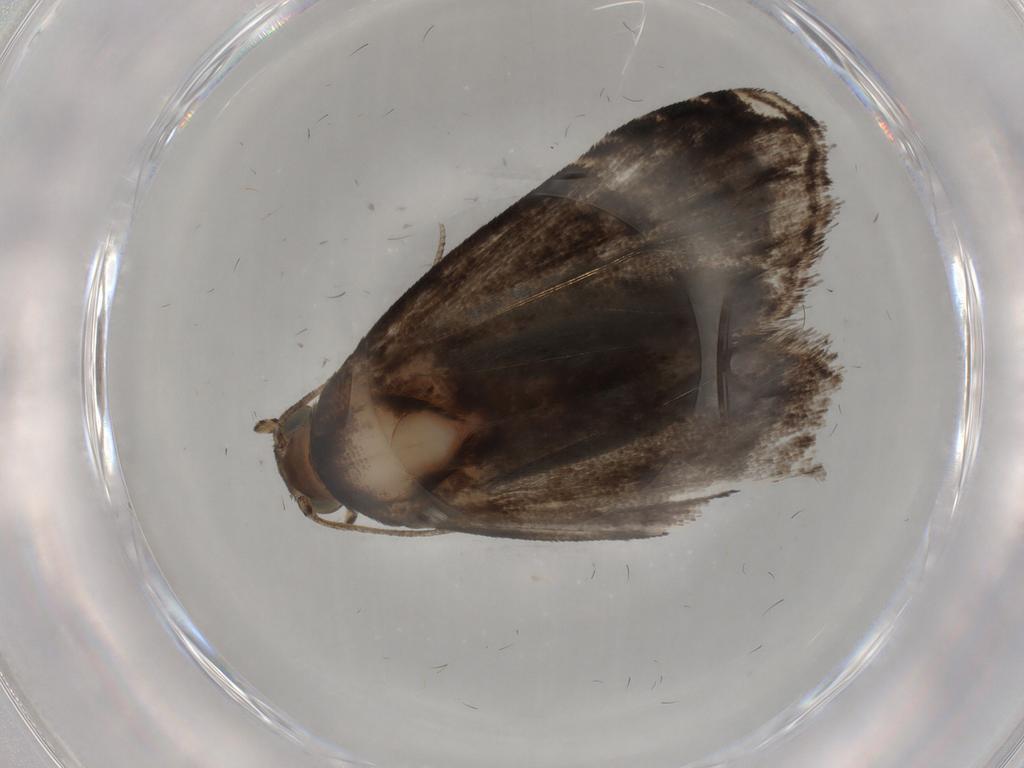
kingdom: Animalia
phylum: Arthropoda
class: Insecta
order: Lepidoptera
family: Immidae
